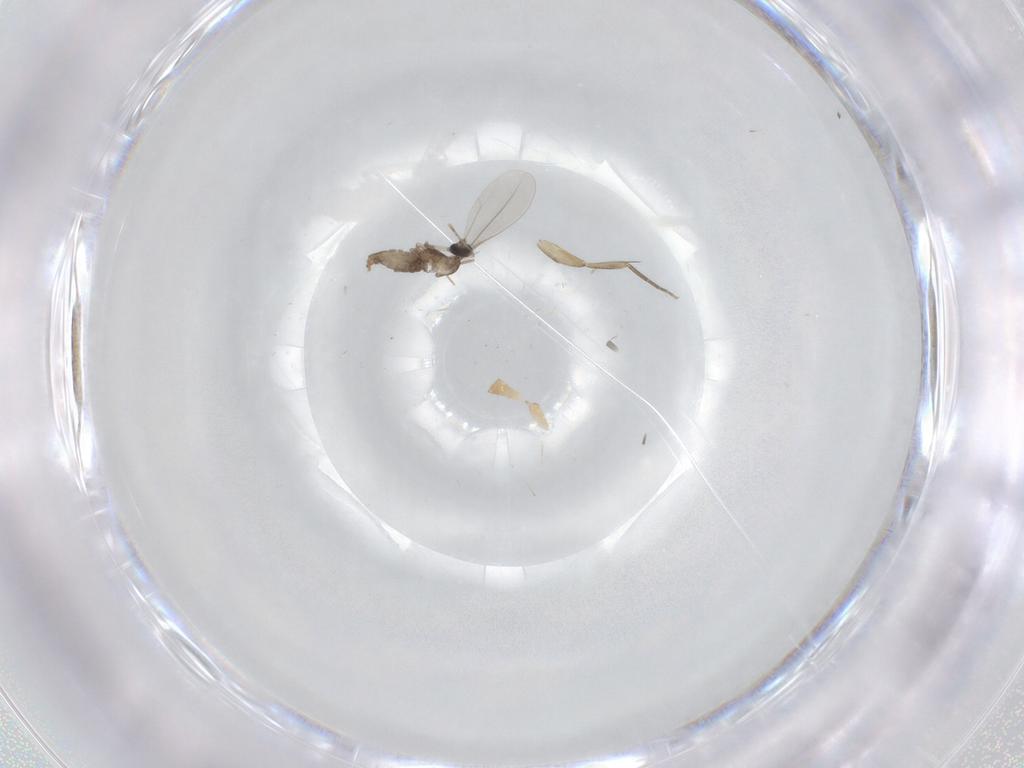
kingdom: Animalia
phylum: Arthropoda
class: Insecta
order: Diptera
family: Cecidomyiidae
